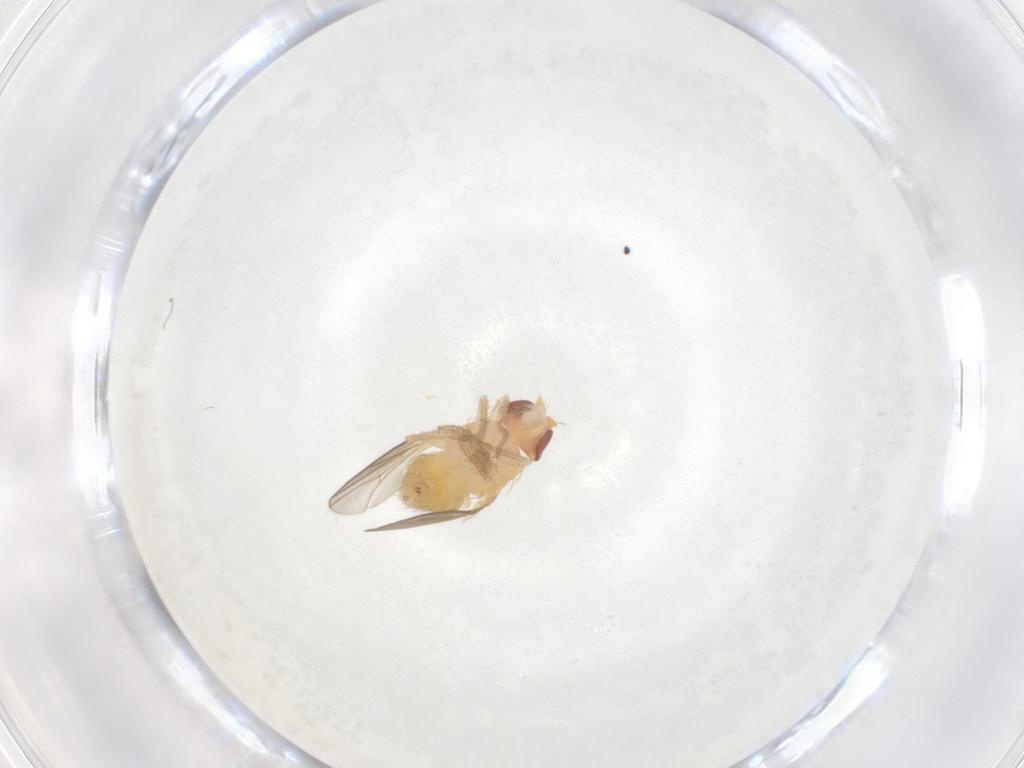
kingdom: Animalia
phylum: Arthropoda
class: Insecta
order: Diptera
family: Drosophilidae
